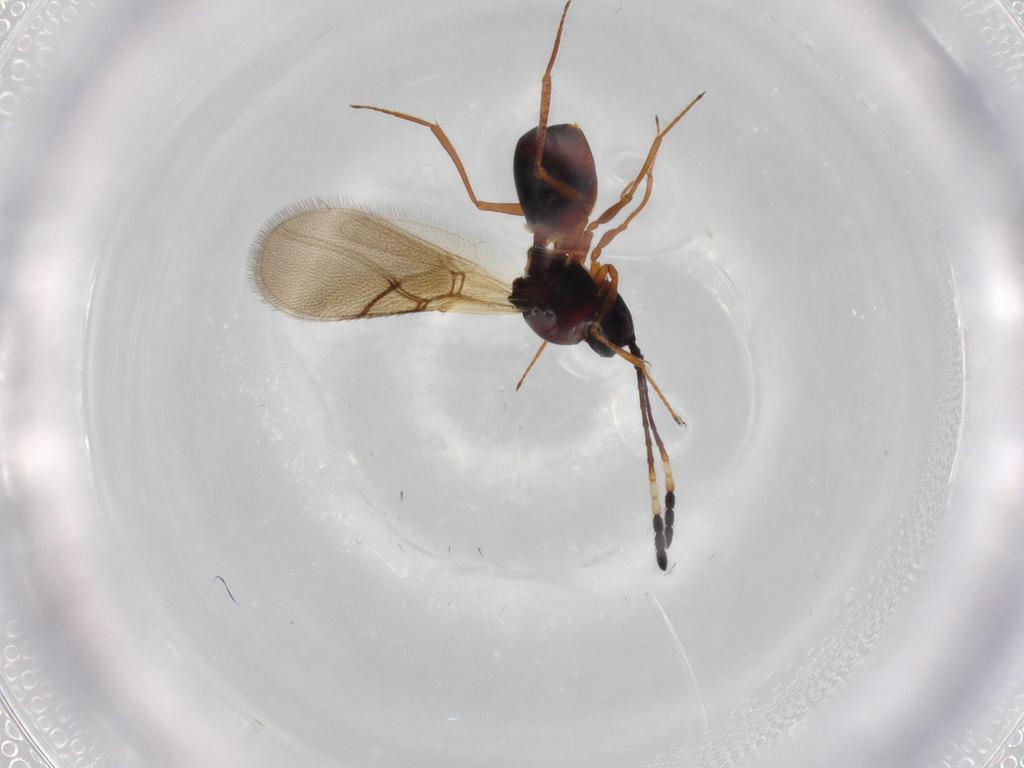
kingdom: Animalia
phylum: Arthropoda
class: Insecta
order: Hymenoptera
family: Figitidae
